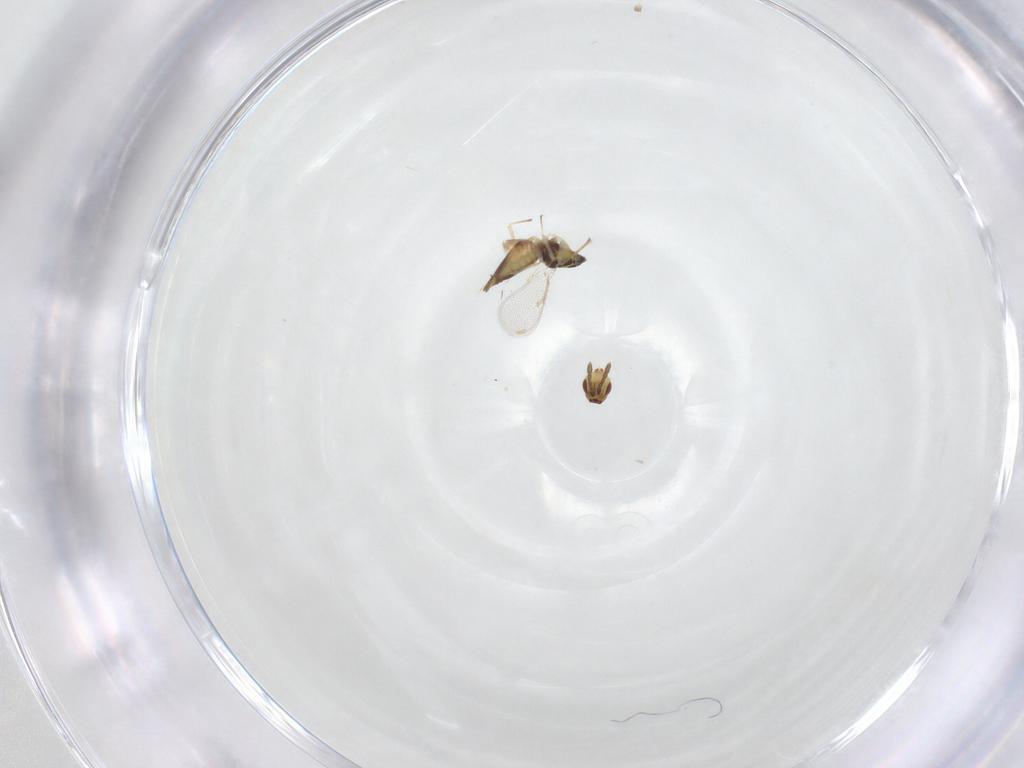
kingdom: Animalia
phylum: Arthropoda
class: Insecta
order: Hymenoptera
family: Eulophidae
